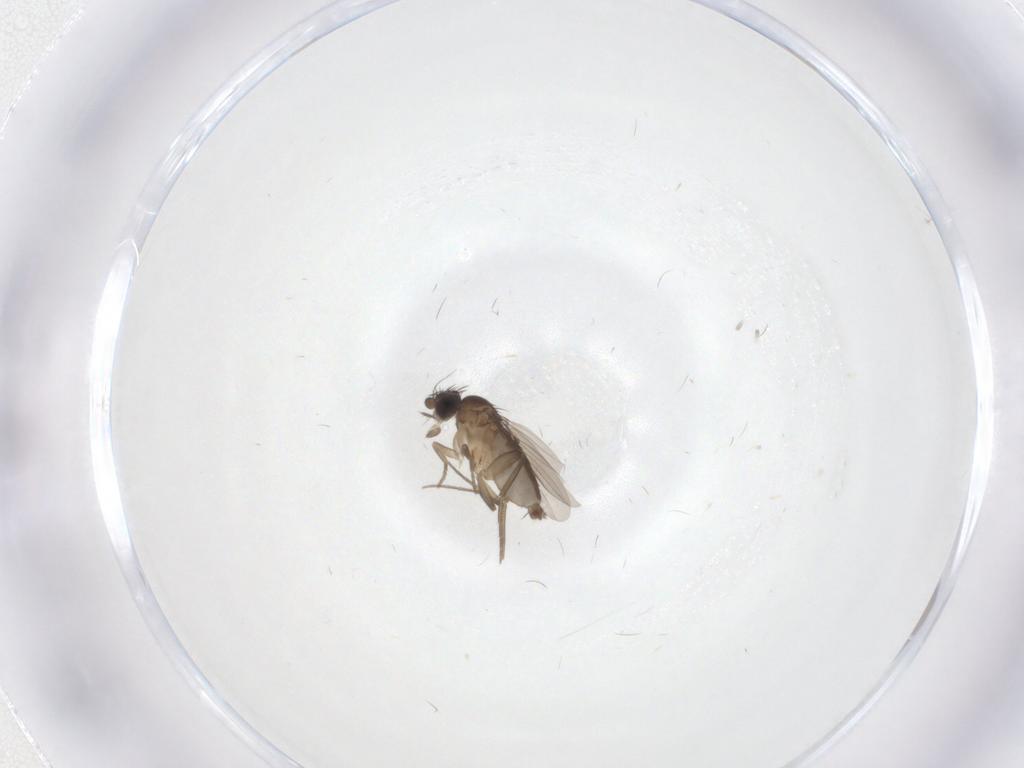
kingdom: Animalia
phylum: Arthropoda
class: Insecta
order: Diptera
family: Phoridae
